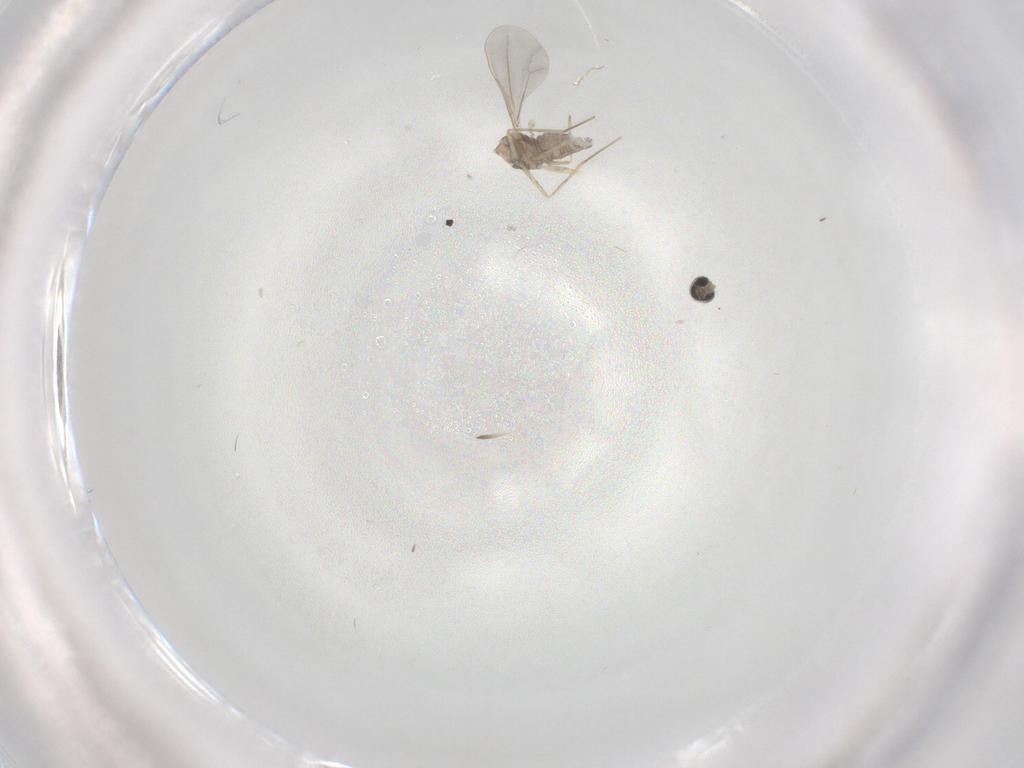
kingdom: Animalia
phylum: Arthropoda
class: Insecta
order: Diptera
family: Cecidomyiidae
